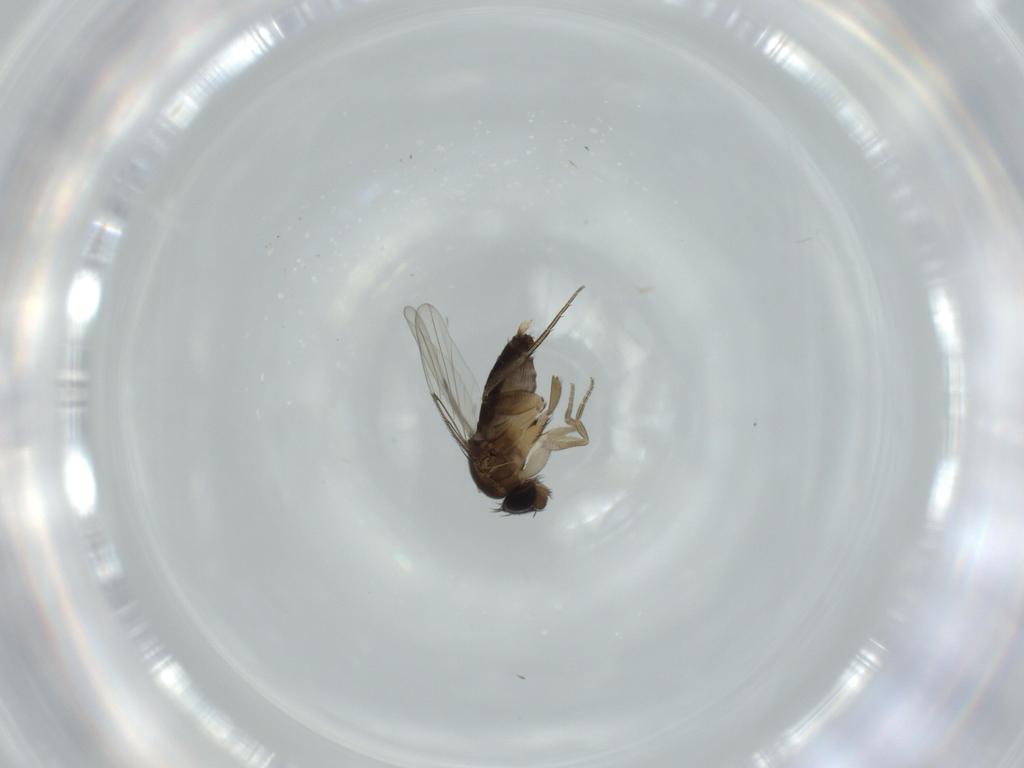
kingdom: Animalia
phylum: Arthropoda
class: Insecta
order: Diptera
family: Phoridae
